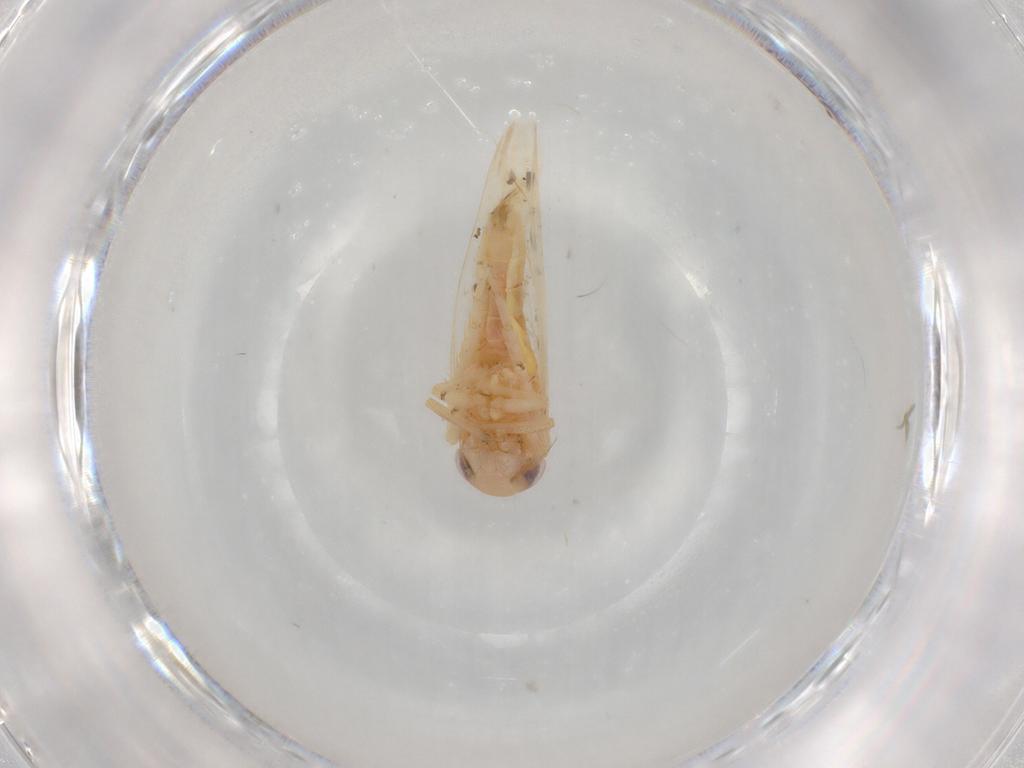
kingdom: Animalia
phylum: Arthropoda
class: Insecta
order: Hemiptera
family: Cicadellidae
